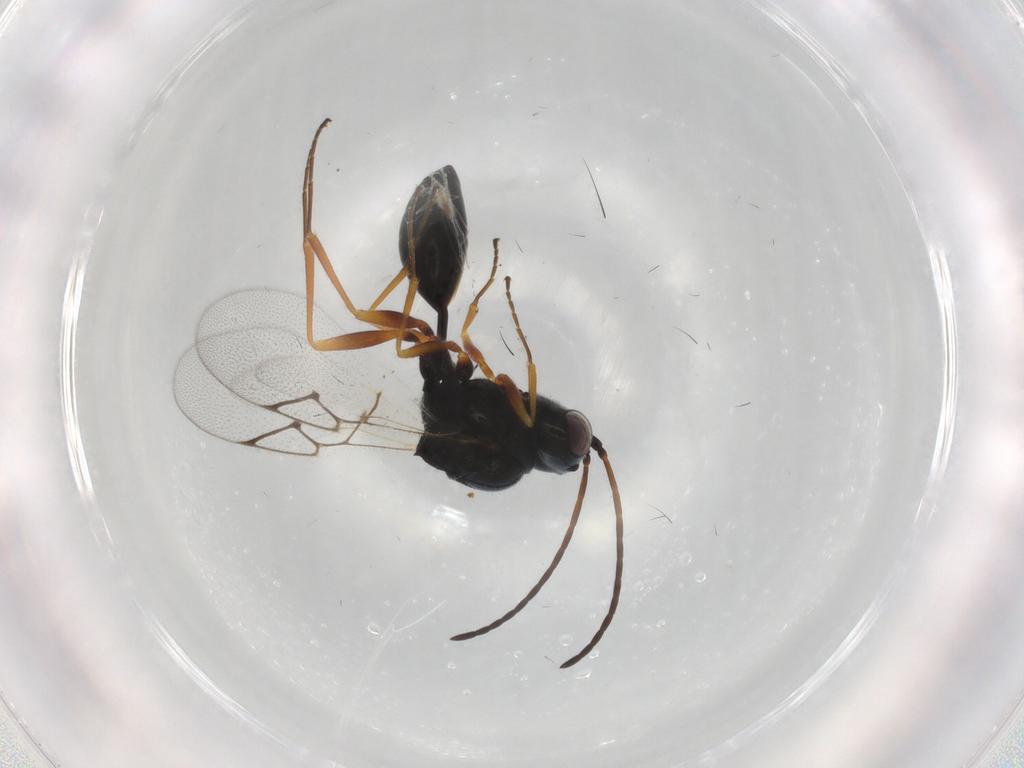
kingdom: Animalia
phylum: Arthropoda
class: Insecta
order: Hymenoptera
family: Figitidae
